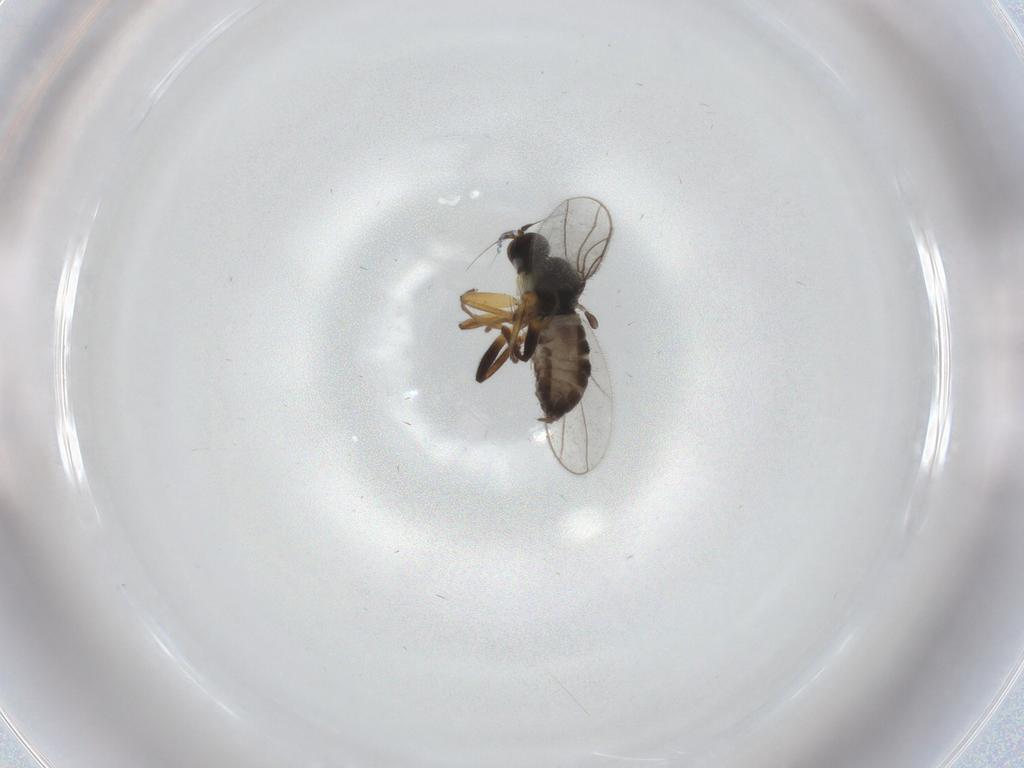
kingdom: Animalia
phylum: Arthropoda
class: Insecta
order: Diptera
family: Hybotidae
